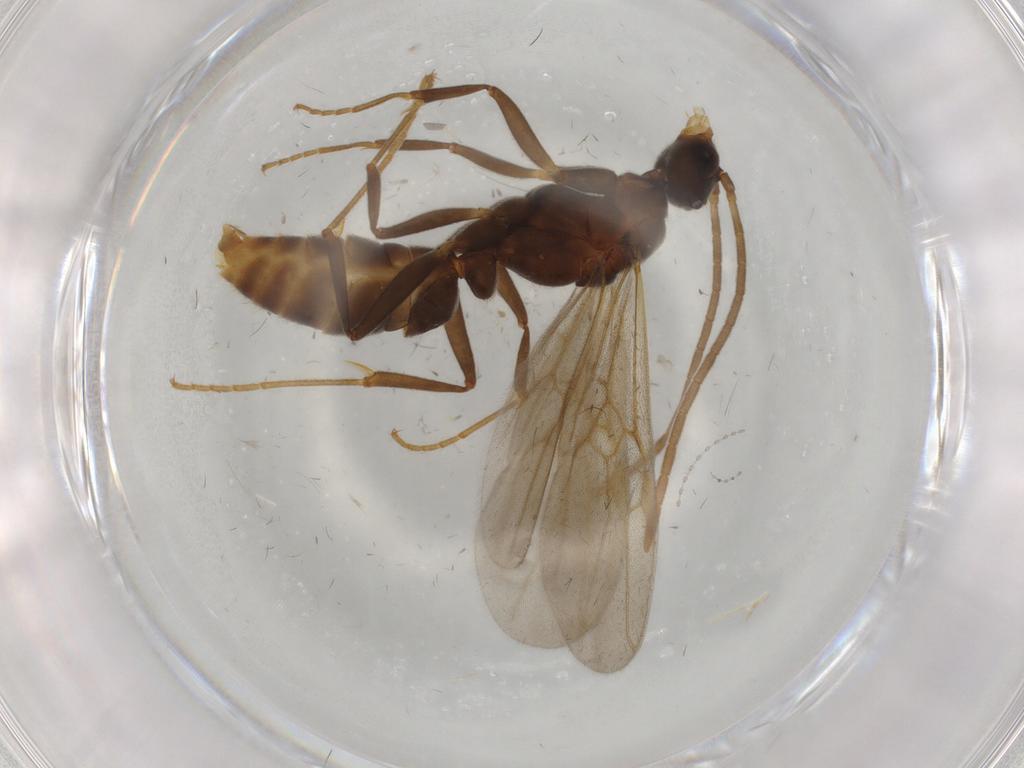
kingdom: Animalia
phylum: Arthropoda
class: Insecta
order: Hymenoptera
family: Formicidae
